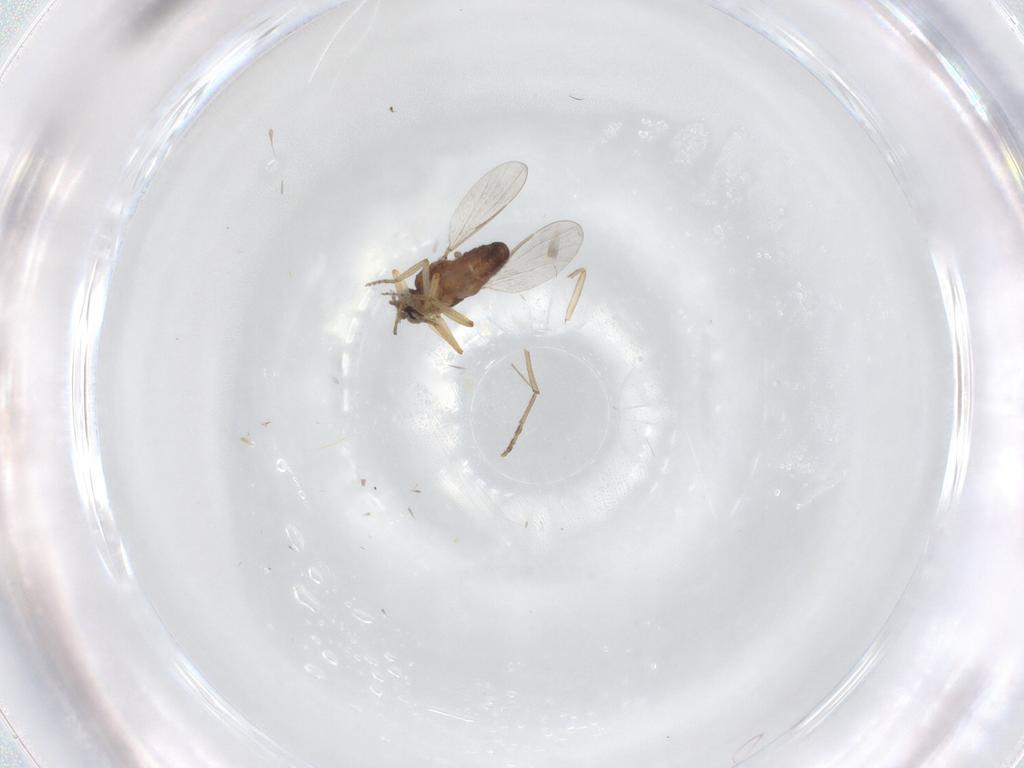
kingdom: Animalia
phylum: Arthropoda
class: Insecta
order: Diptera
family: Ceratopogonidae
